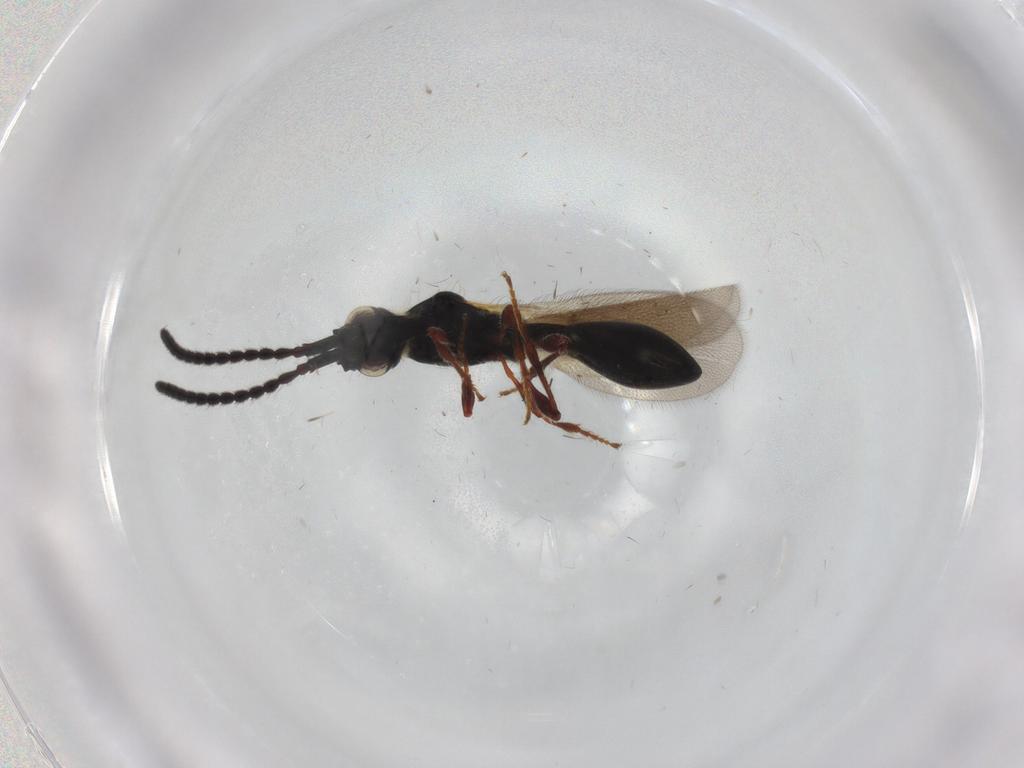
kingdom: Animalia
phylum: Arthropoda
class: Insecta
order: Hymenoptera
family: Diapriidae
